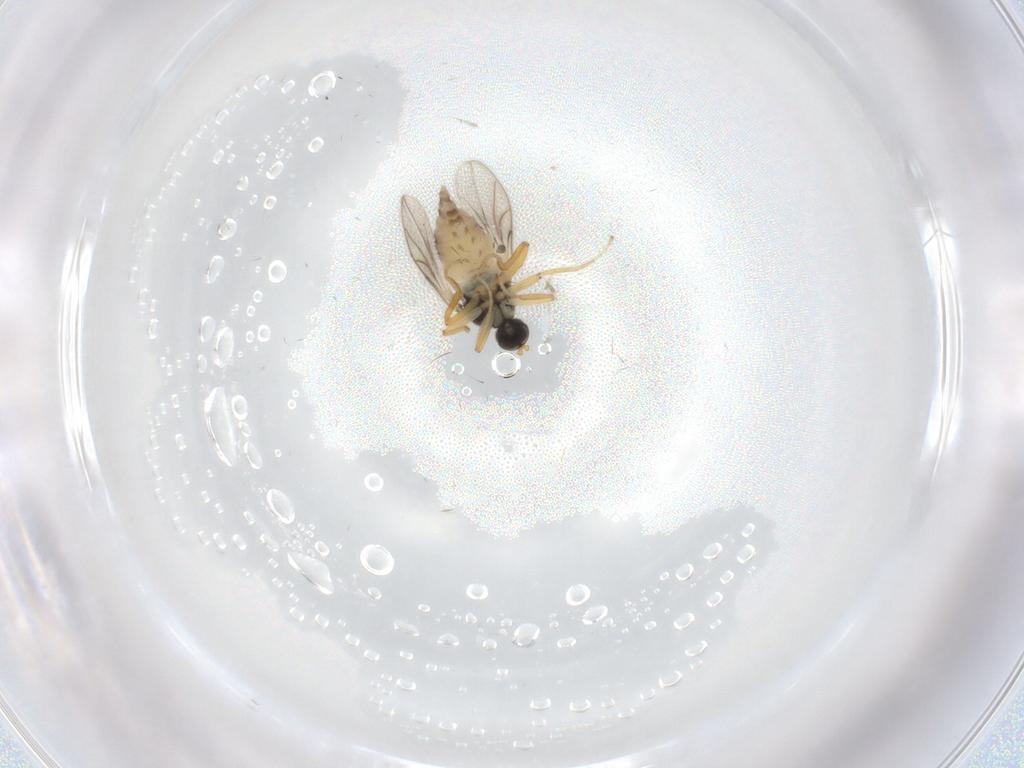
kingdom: Animalia
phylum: Arthropoda
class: Insecta
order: Diptera
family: Hybotidae
